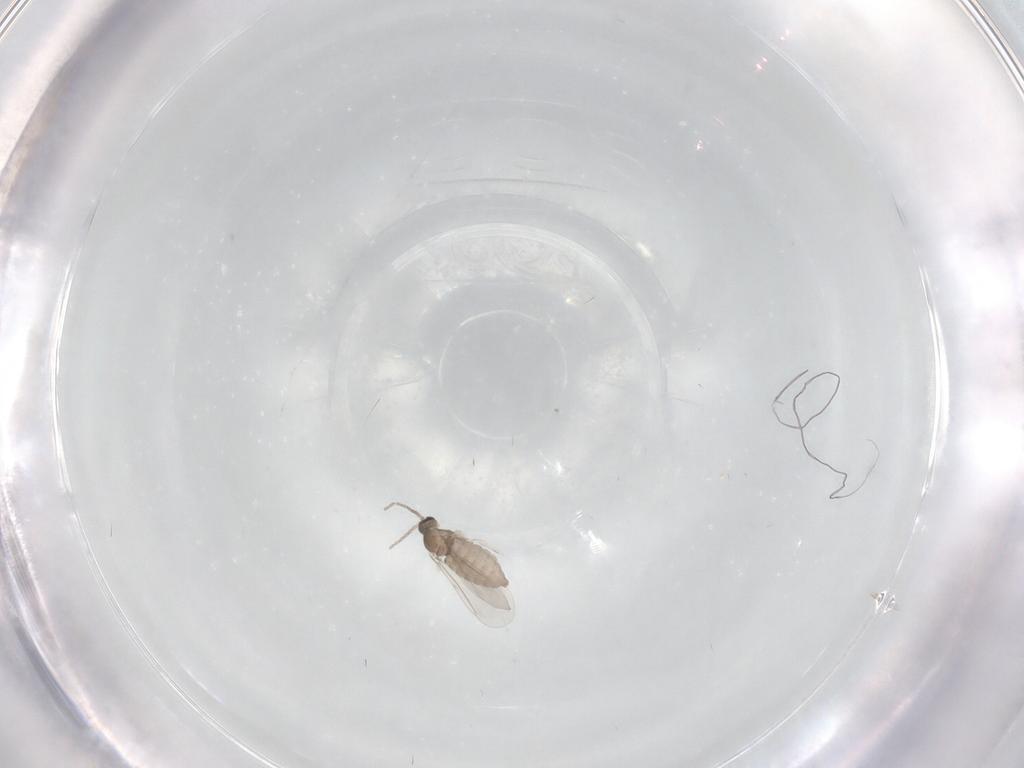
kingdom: Animalia
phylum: Arthropoda
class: Insecta
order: Diptera
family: Cecidomyiidae
